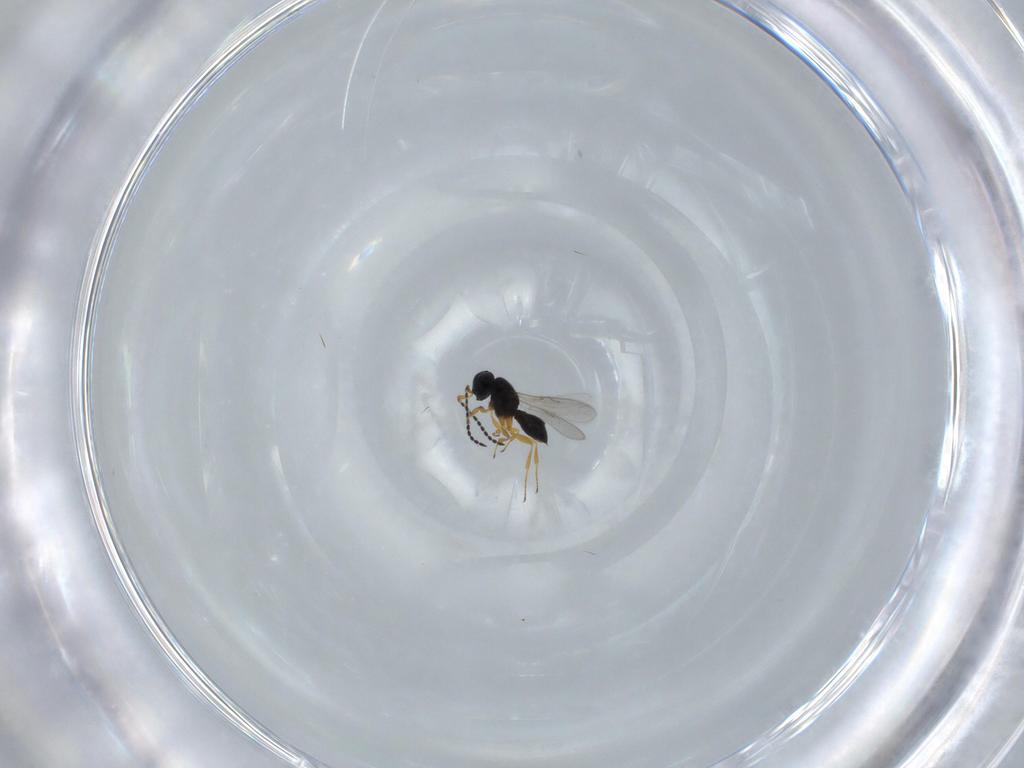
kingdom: Animalia
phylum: Arthropoda
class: Insecta
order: Hymenoptera
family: Scelionidae
